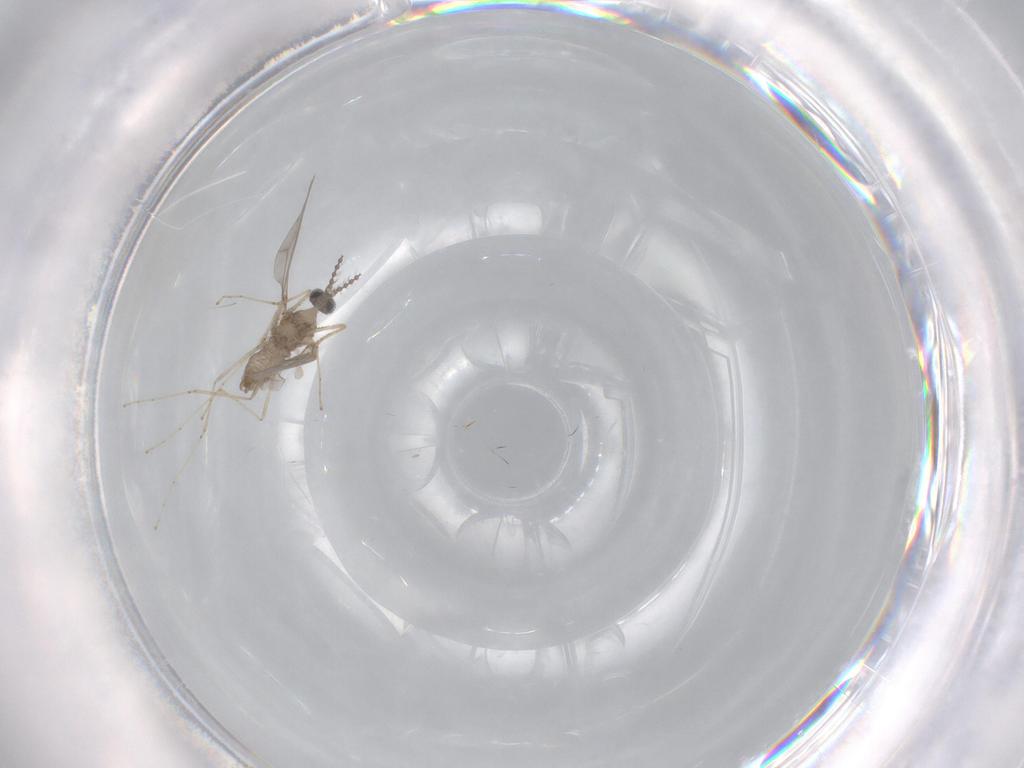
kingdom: Animalia
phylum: Arthropoda
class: Insecta
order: Diptera
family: Cecidomyiidae
